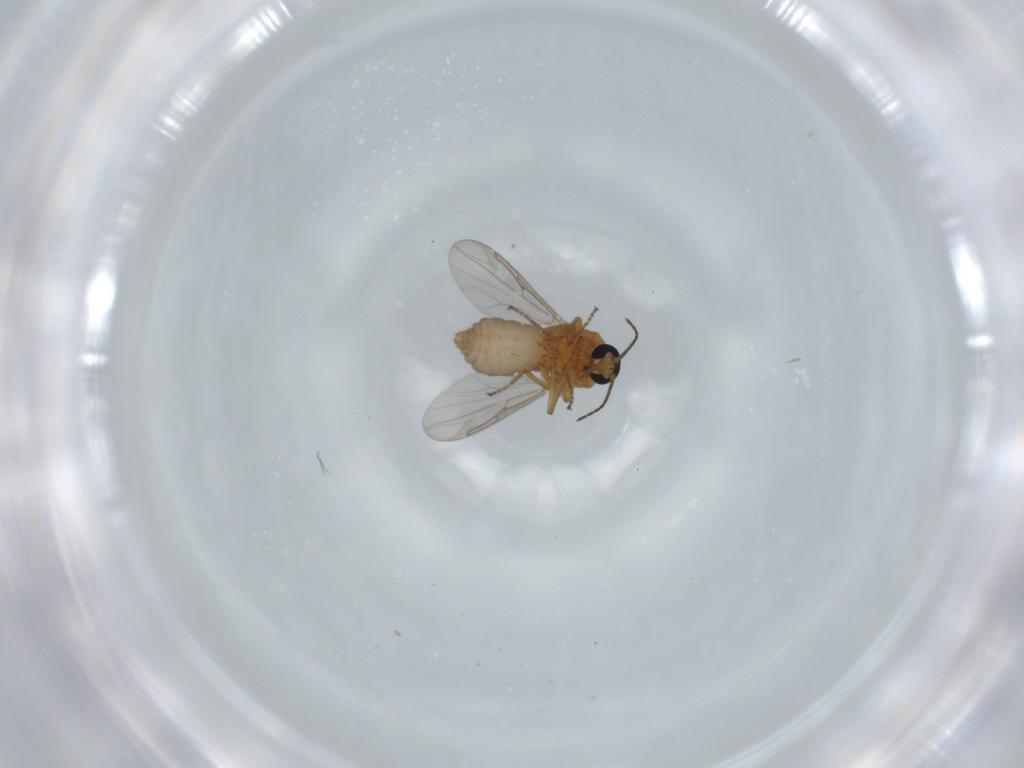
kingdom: Animalia
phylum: Arthropoda
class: Insecta
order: Diptera
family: Ceratopogonidae
